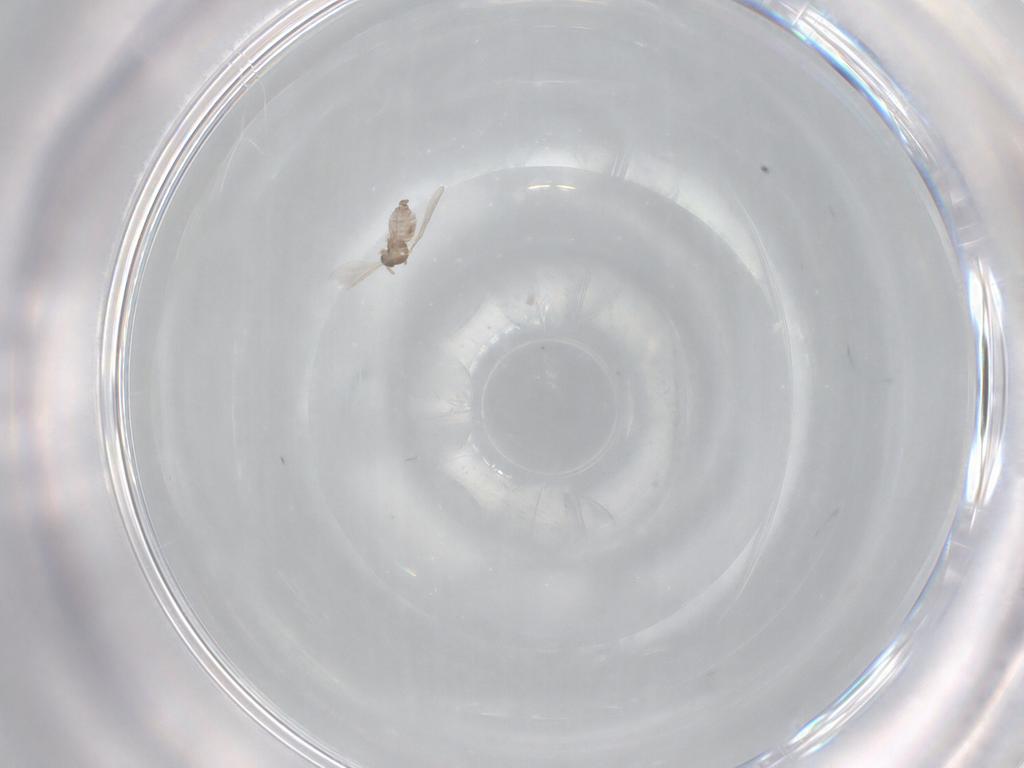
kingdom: Animalia
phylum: Arthropoda
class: Insecta
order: Diptera
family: Cecidomyiidae
